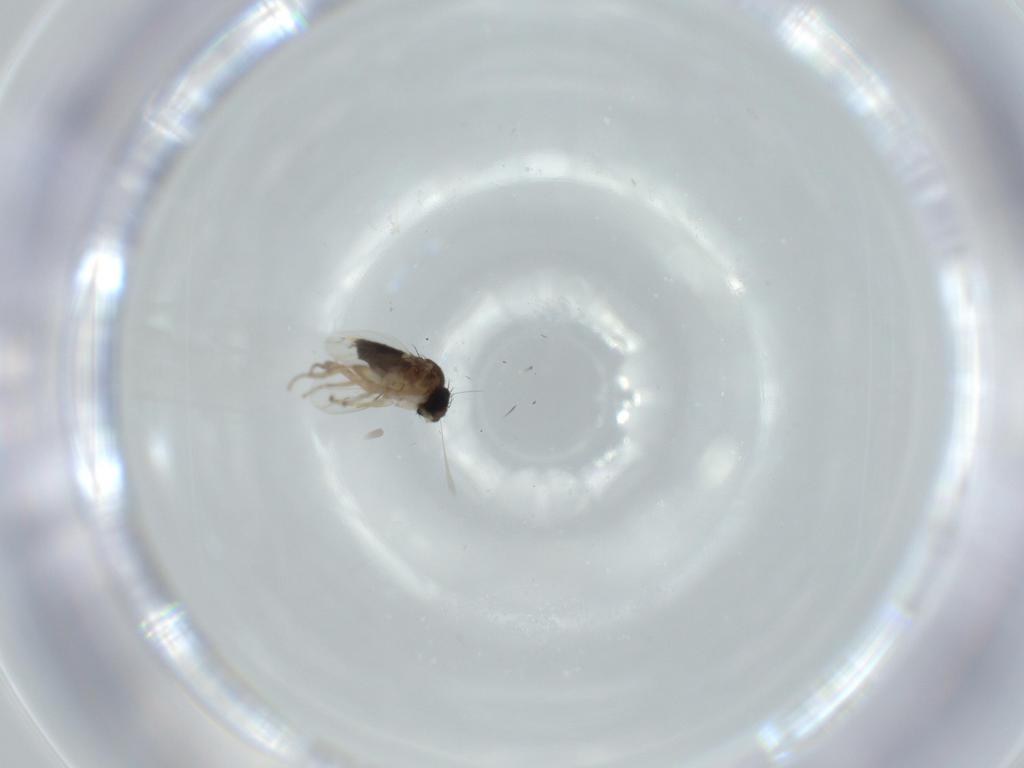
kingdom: Animalia
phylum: Arthropoda
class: Insecta
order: Diptera
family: Phoridae
